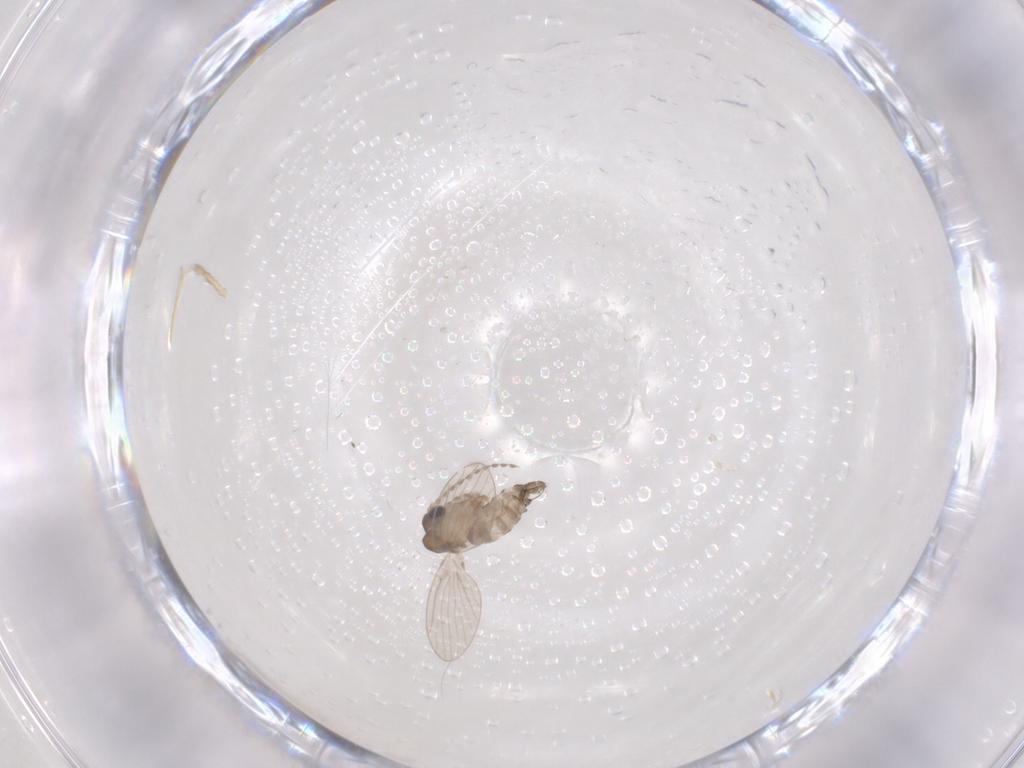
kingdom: Animalia
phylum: Arthropoda
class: Insecta
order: Diptera
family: Psychodidae
